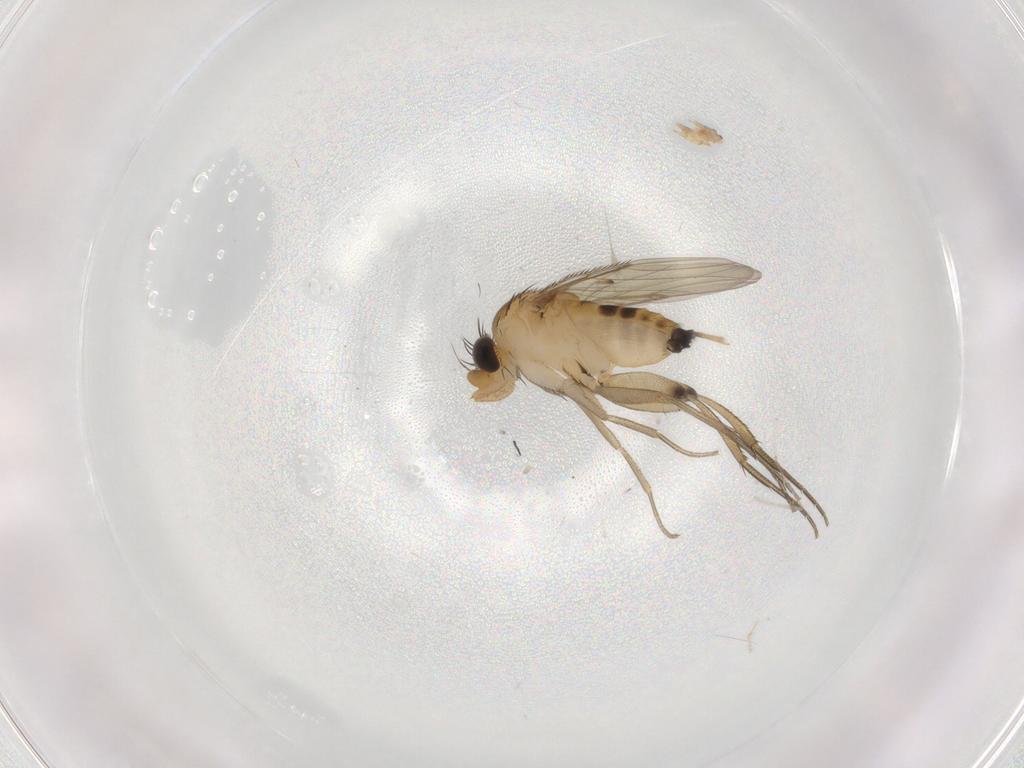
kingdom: Animalia
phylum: Arthropoda
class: Insecta
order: Diptera
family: Phoridae
